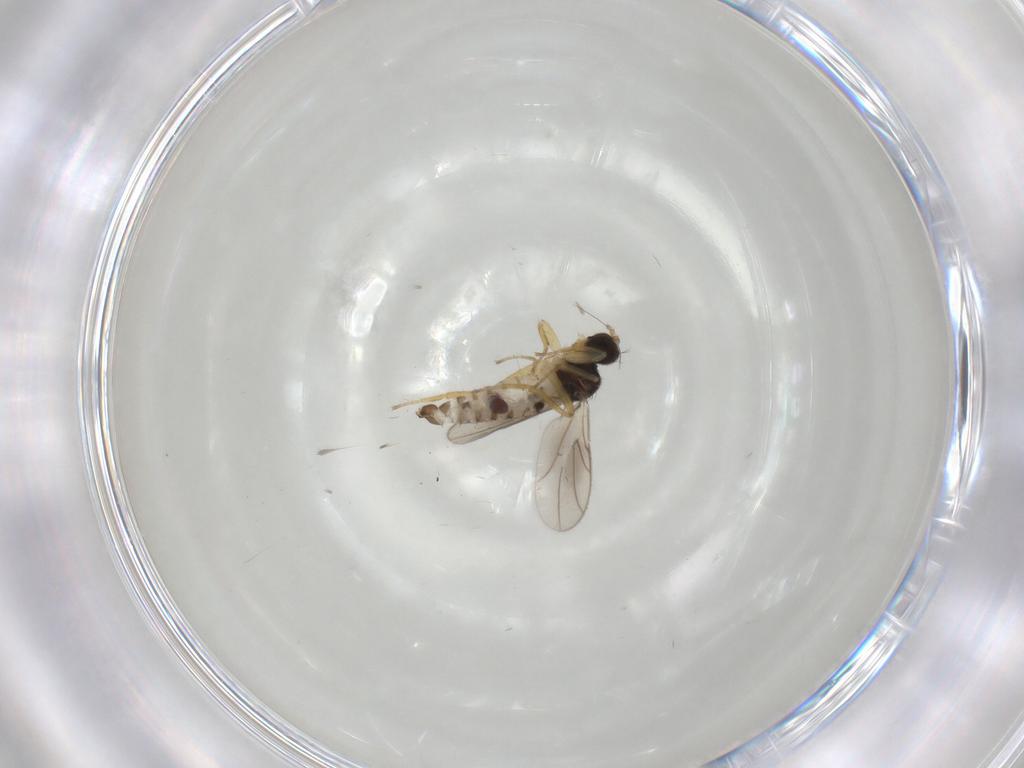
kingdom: Animalia
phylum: Arthropoda
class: Insecta
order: Diptera
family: Hybotidae
